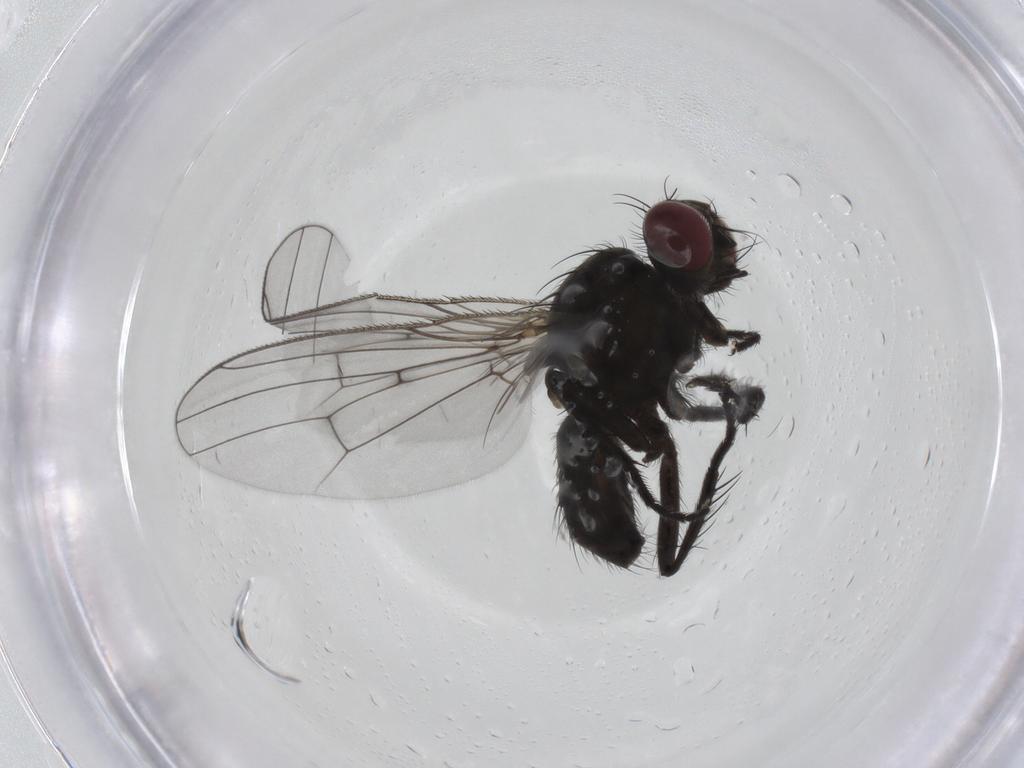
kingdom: Animalia
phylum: Arthropoda
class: Insecta
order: Diptera
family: Muscidae
